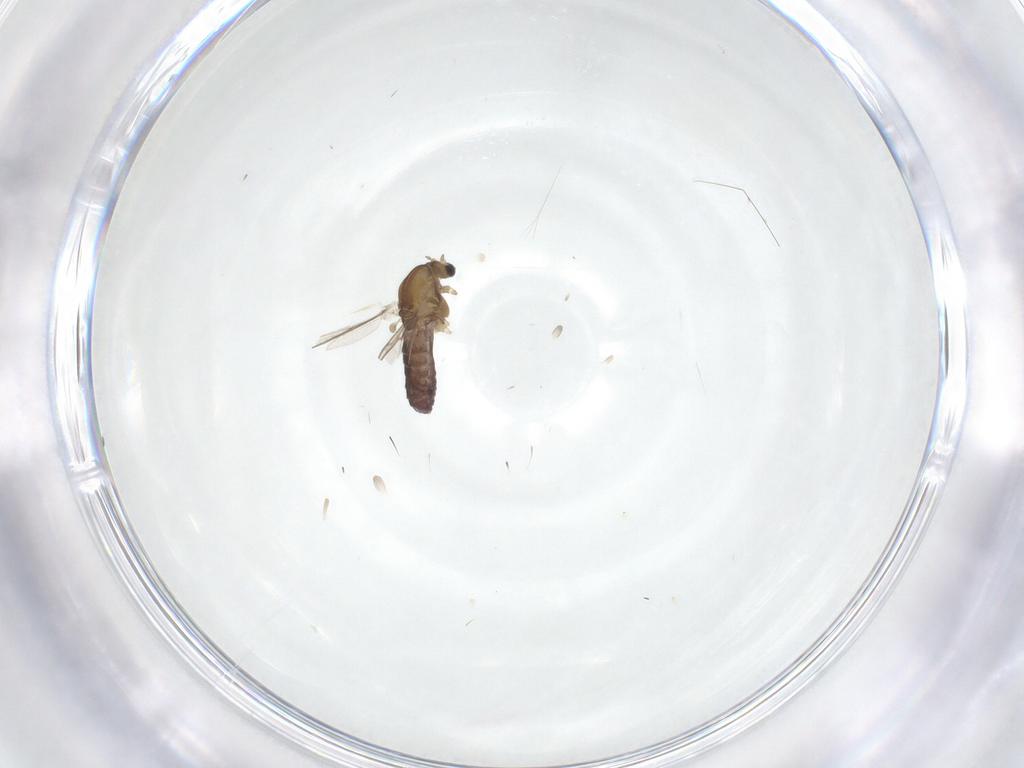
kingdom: Animalia
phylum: Arthropoda
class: Insecta
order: Diptera
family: Chironomidae
